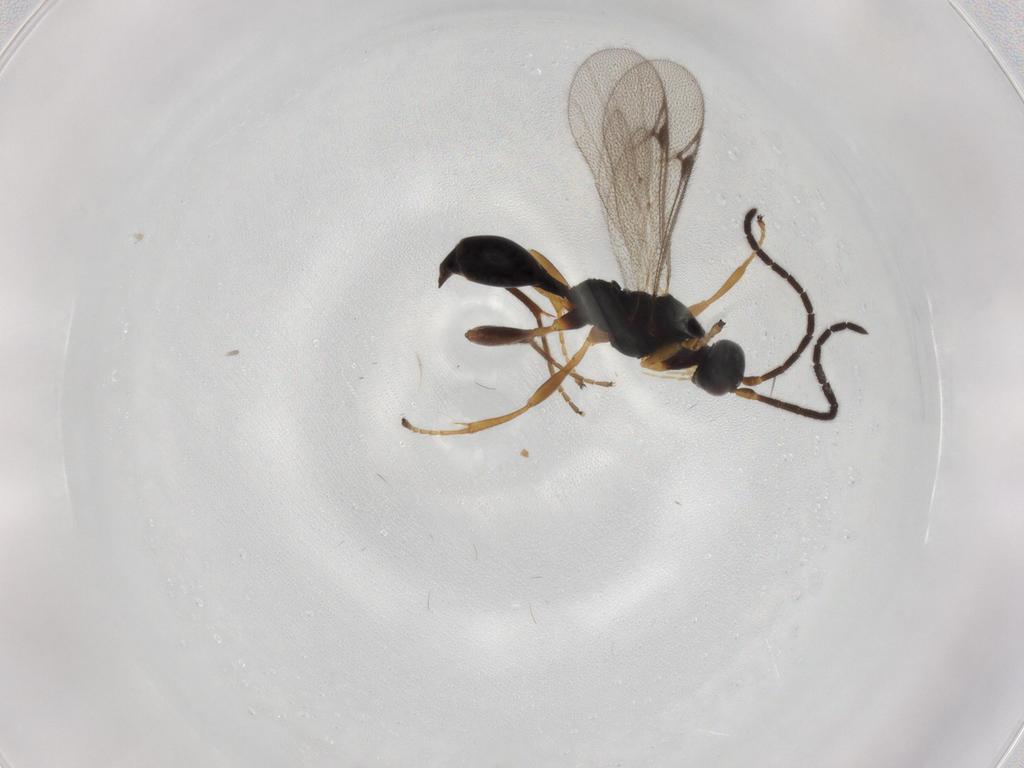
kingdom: Animalia
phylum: Arthropoda
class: Insecta
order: Hymenoptera
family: Proctotrupidae
